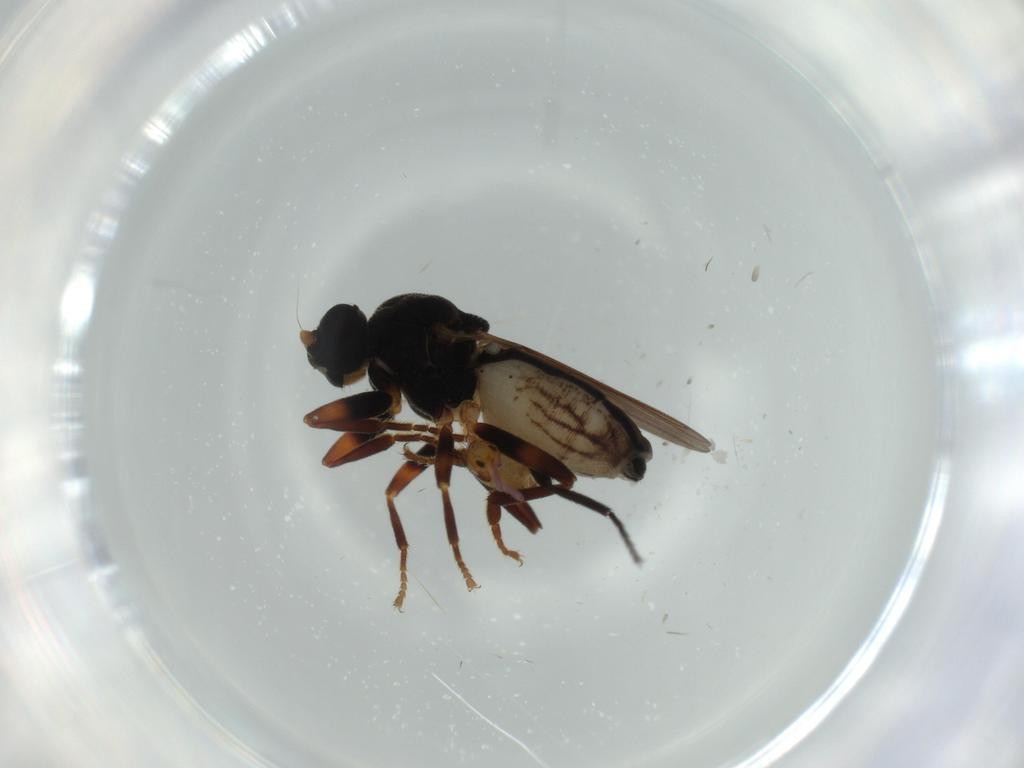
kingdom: Animalia
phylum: Arthropoda
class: Insecta
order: Diptera
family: Sphaeroceridae
